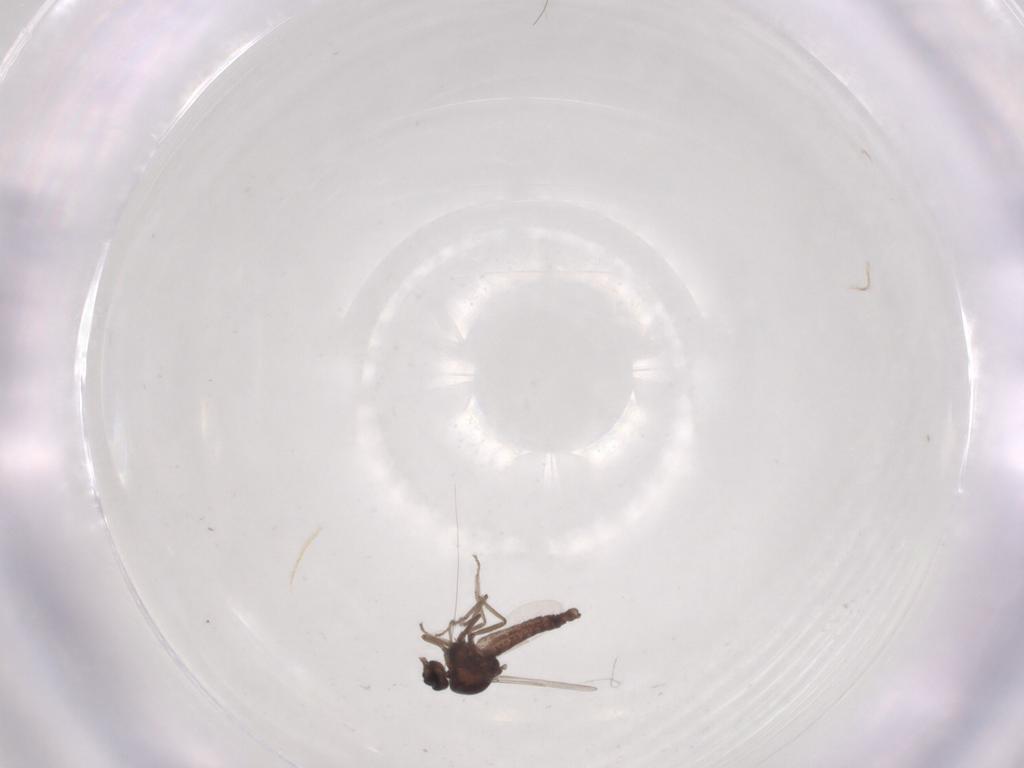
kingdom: Animalia
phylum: Arthropoda
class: Insecta
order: Diptera
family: Ceratopogonidae
